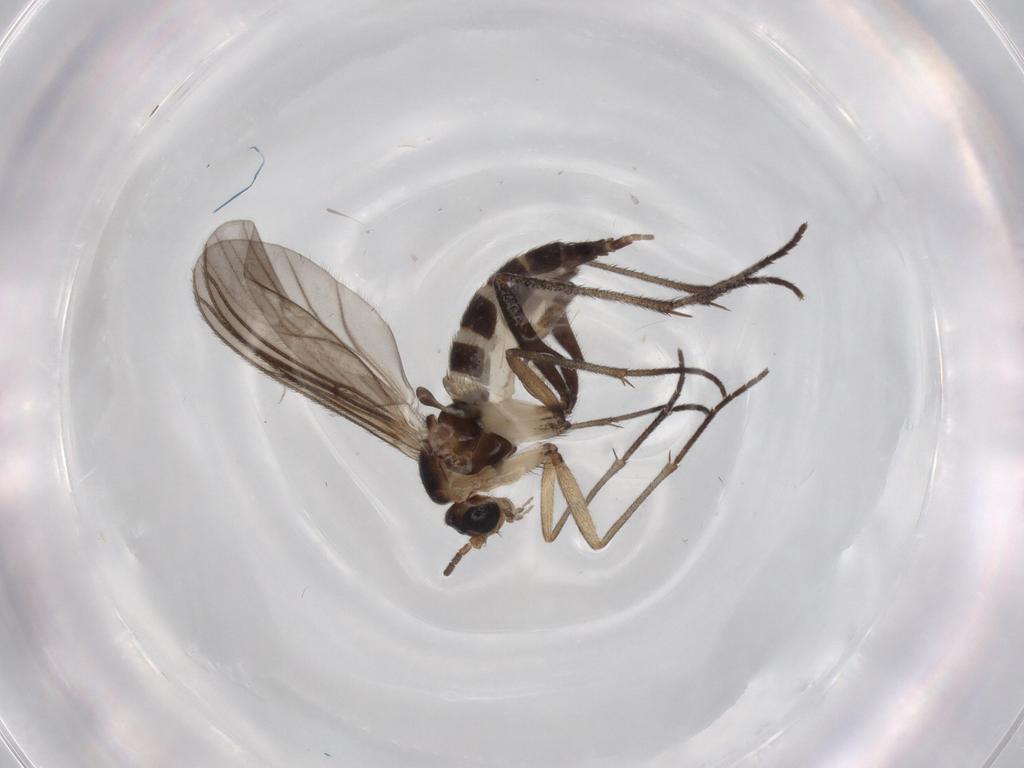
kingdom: Animalia
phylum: Arthropoda
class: Insecta
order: Diptera
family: Sciaridae
